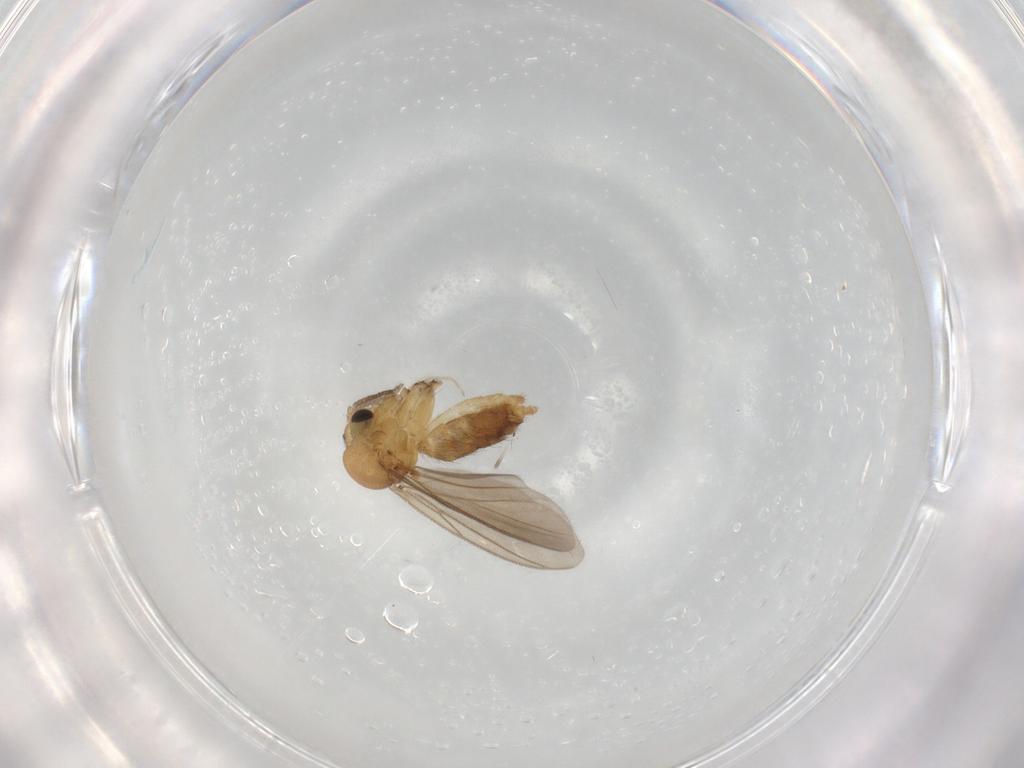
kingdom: Animalia
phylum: Arthropoda
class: Insecta
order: Diptera
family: Chironomidae
